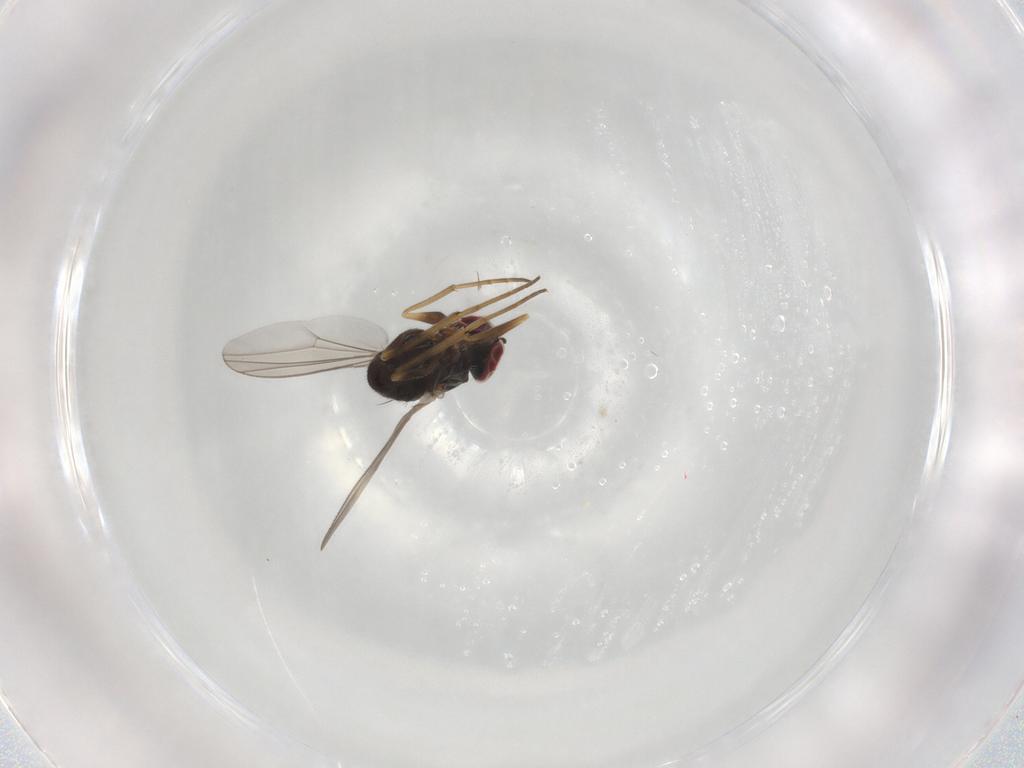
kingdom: Animalia
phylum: Arthropoda
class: Insecta
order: Diptera
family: Dolichopodidae
